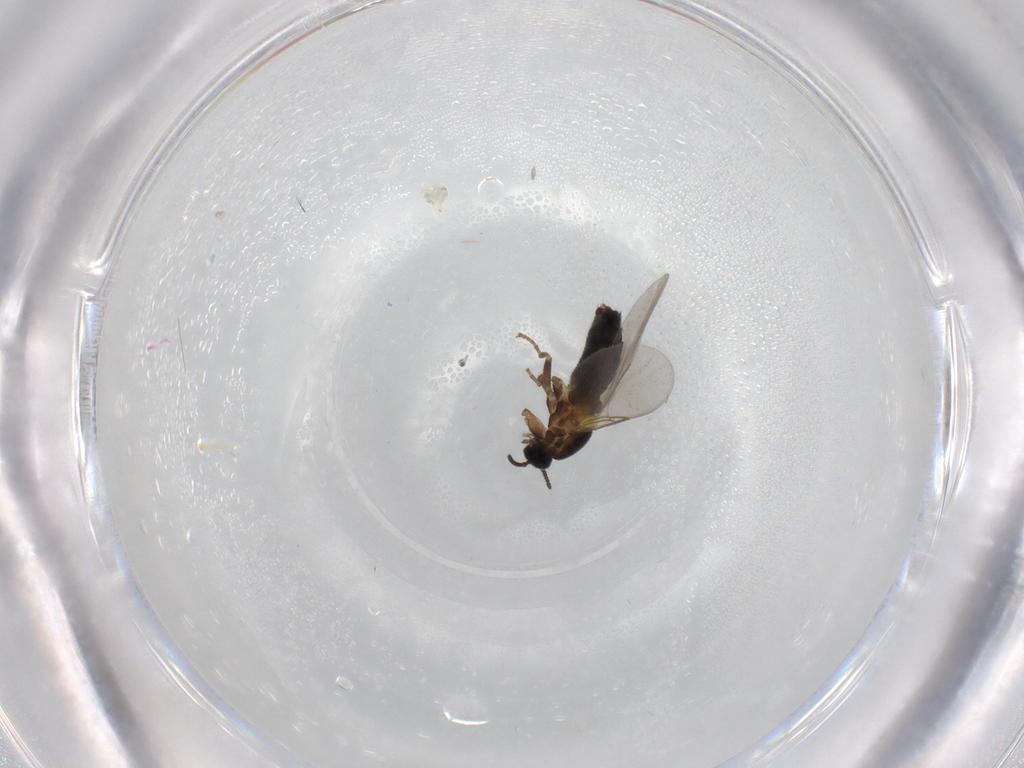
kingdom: Animalia
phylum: Arthropoda
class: Insecta
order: Diptera
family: Scatopsidae
